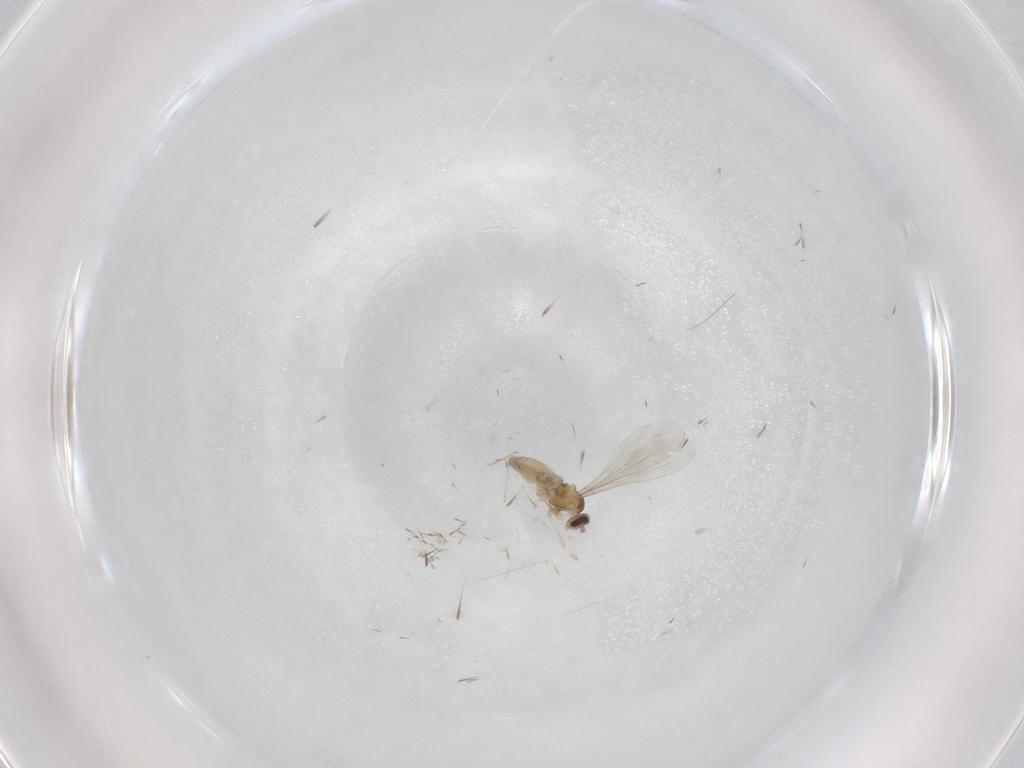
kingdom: Animalia
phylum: Arthropoda
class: Insecta
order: Diptera
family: Cecidomyiidae
